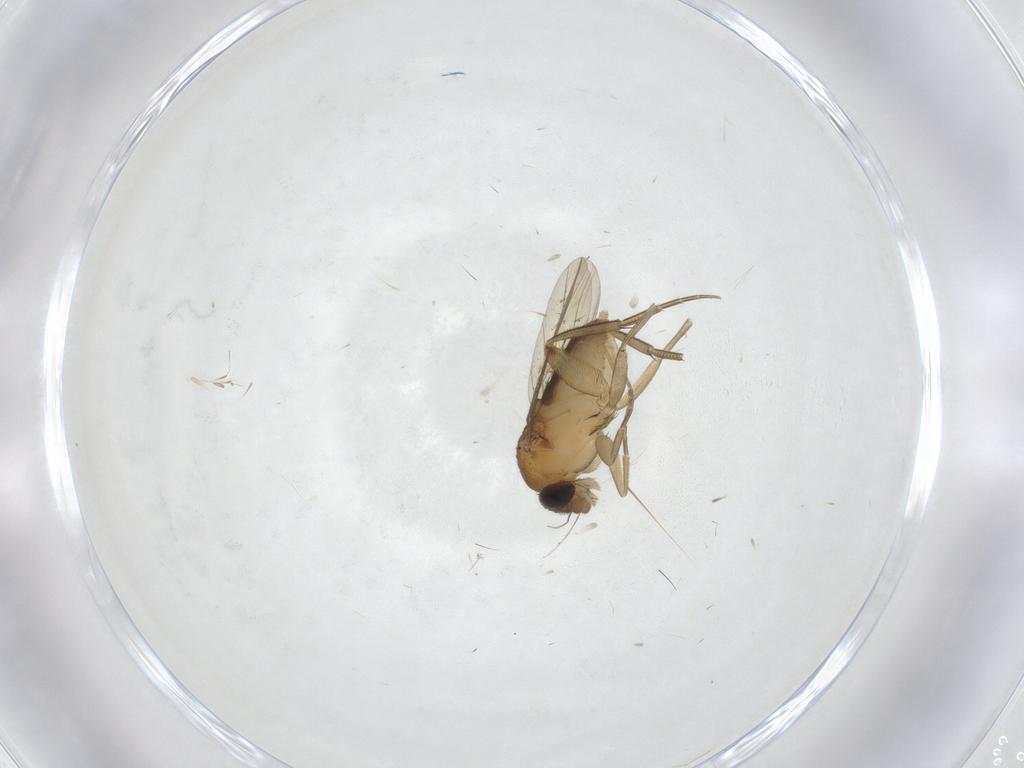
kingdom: Animalia
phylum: Arthropoda
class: Insecta
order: Diptera
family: Phoridae
